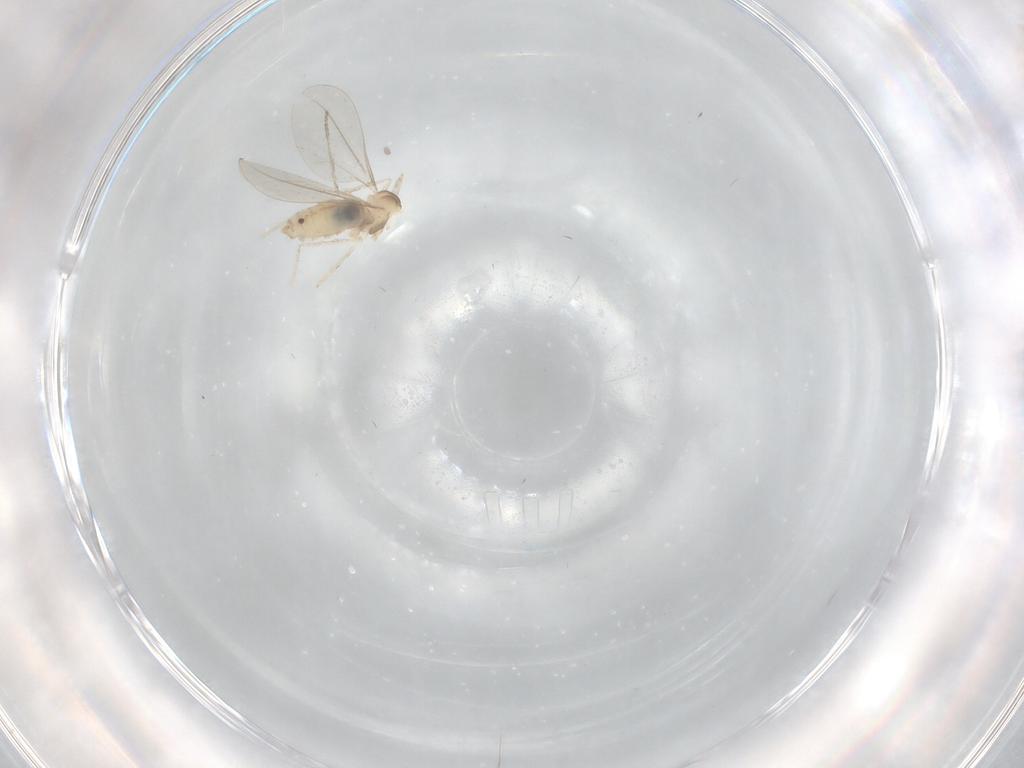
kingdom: Animalia
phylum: Arthropoda
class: Insecta
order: Diptera
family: Cecidomyiidae
